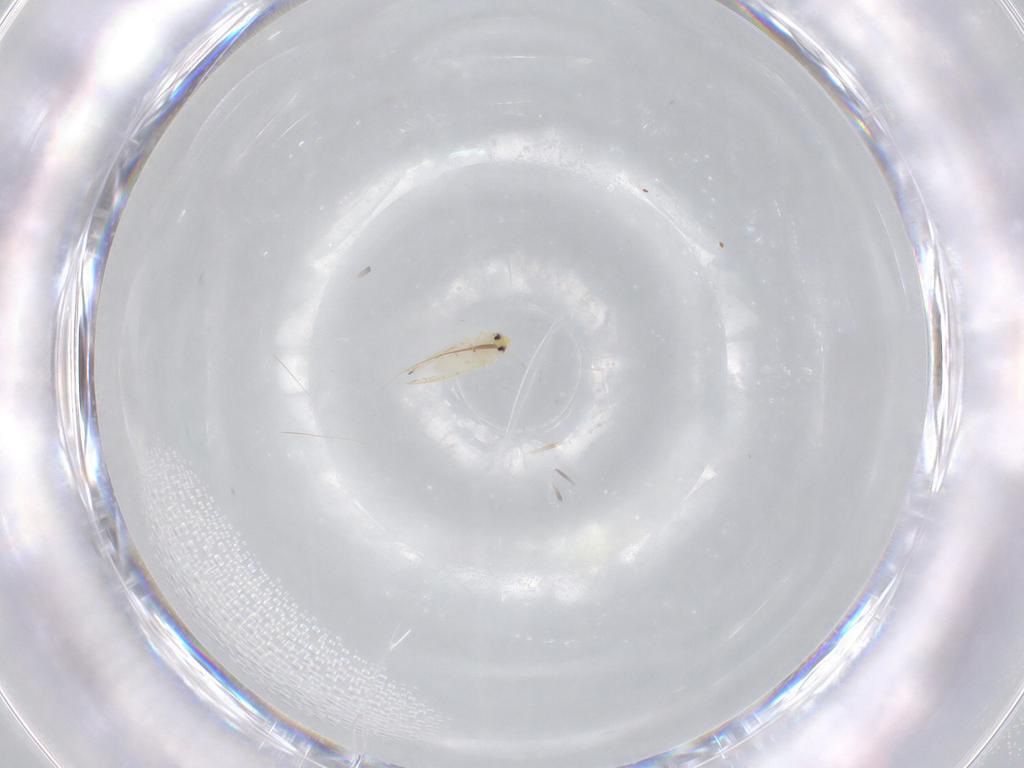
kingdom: Animalia
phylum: Arthropoda
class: Insecta
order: Hemiptera
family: Aleyrodidae
